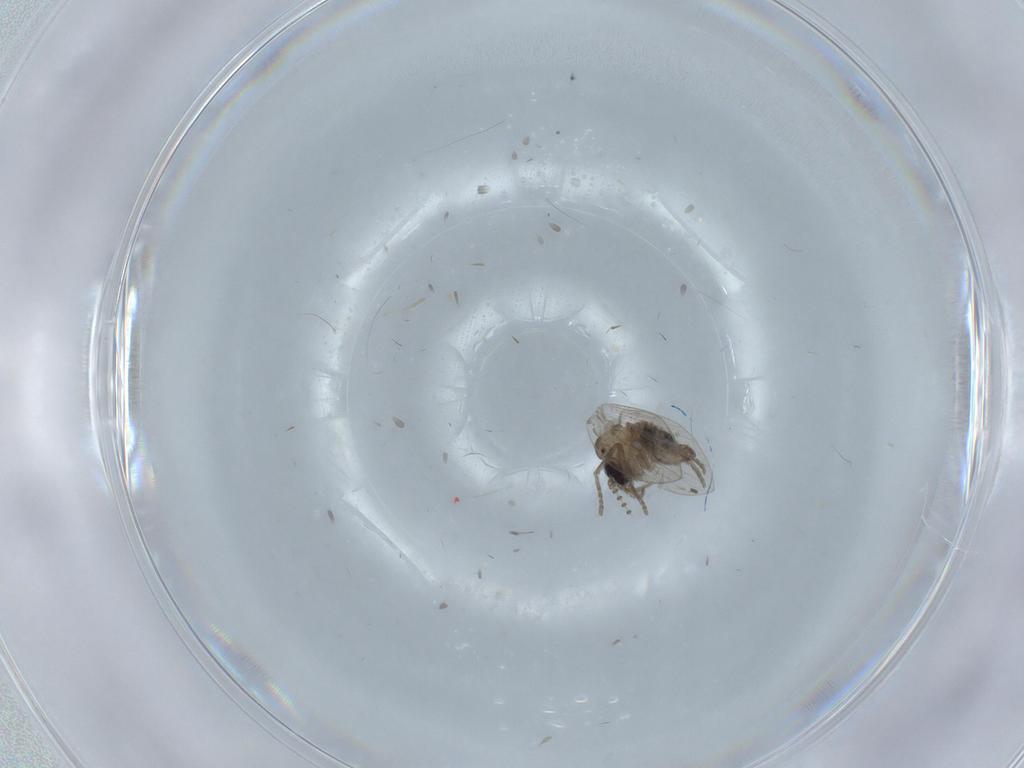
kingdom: Animalia
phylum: Arthropoda
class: Insecta
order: Diptera
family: Psychodidae
